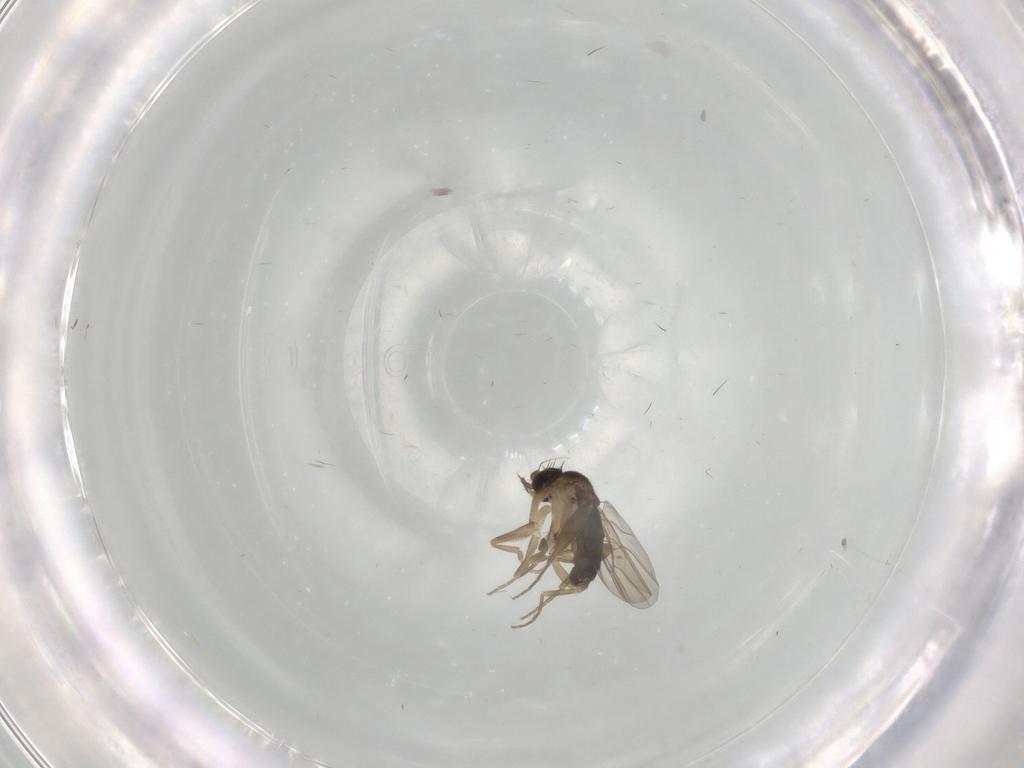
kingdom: Animalia
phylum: Arthropoda
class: Insecta
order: Diptera
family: Phoridae
